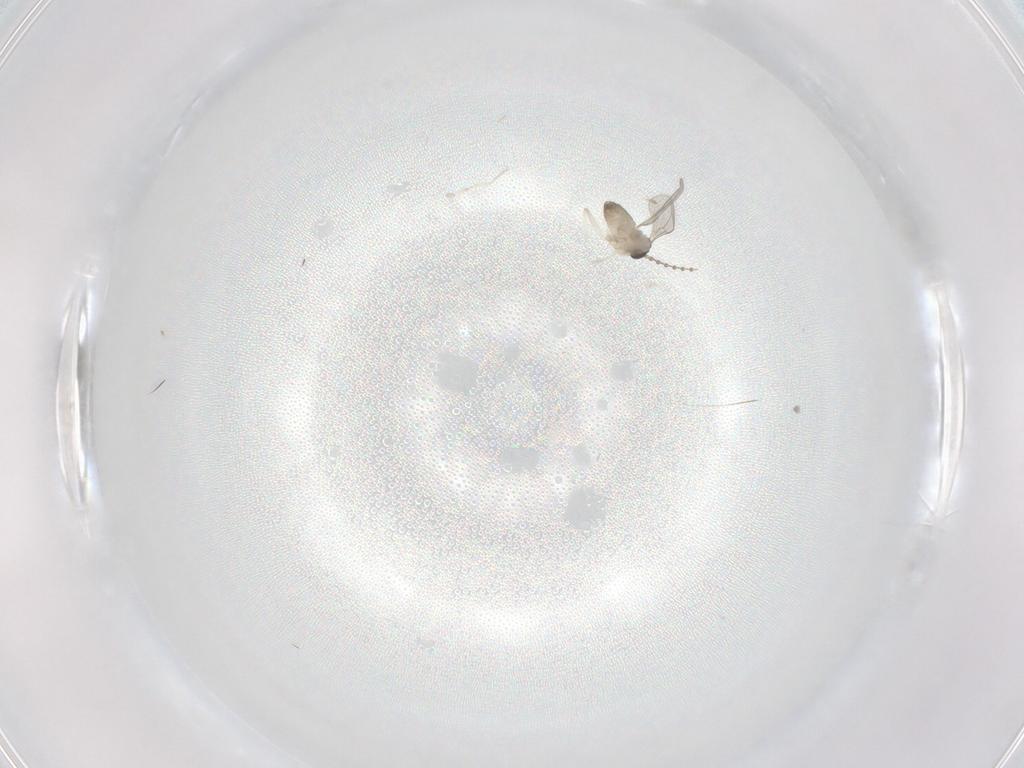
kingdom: Animalia
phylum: Arthropoda
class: Insecta
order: Diptera
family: Cecidomyiidae
